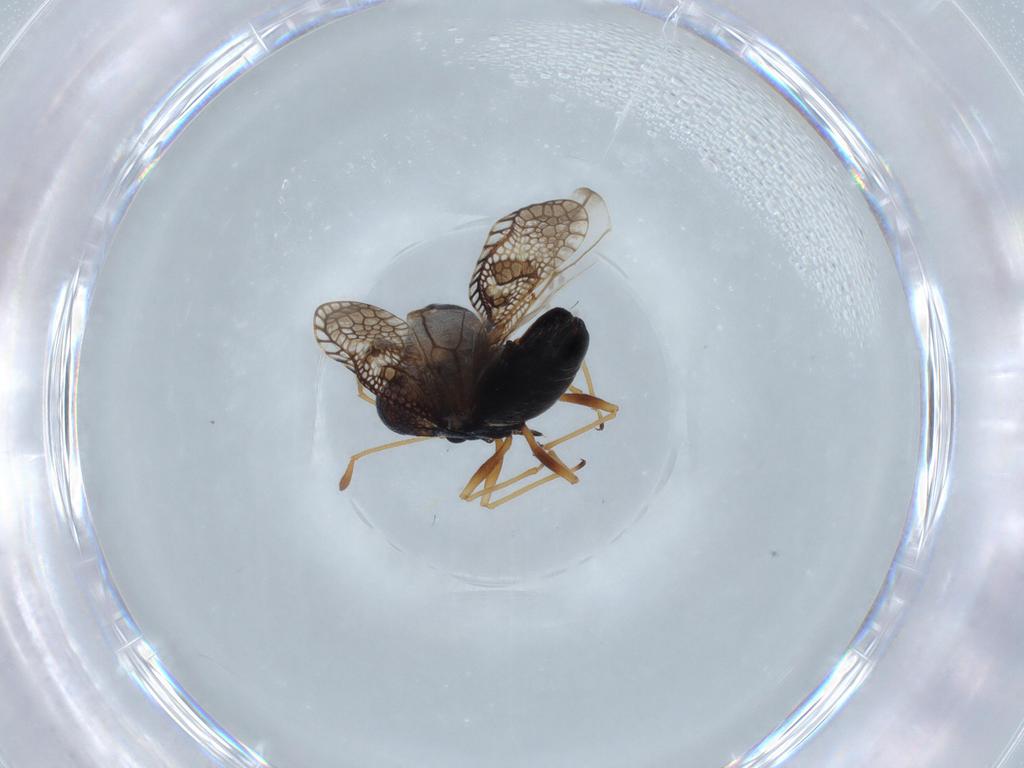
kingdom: Animalia
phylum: Arthropoda
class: Insecta
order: Hemiptera
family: Tingidae
